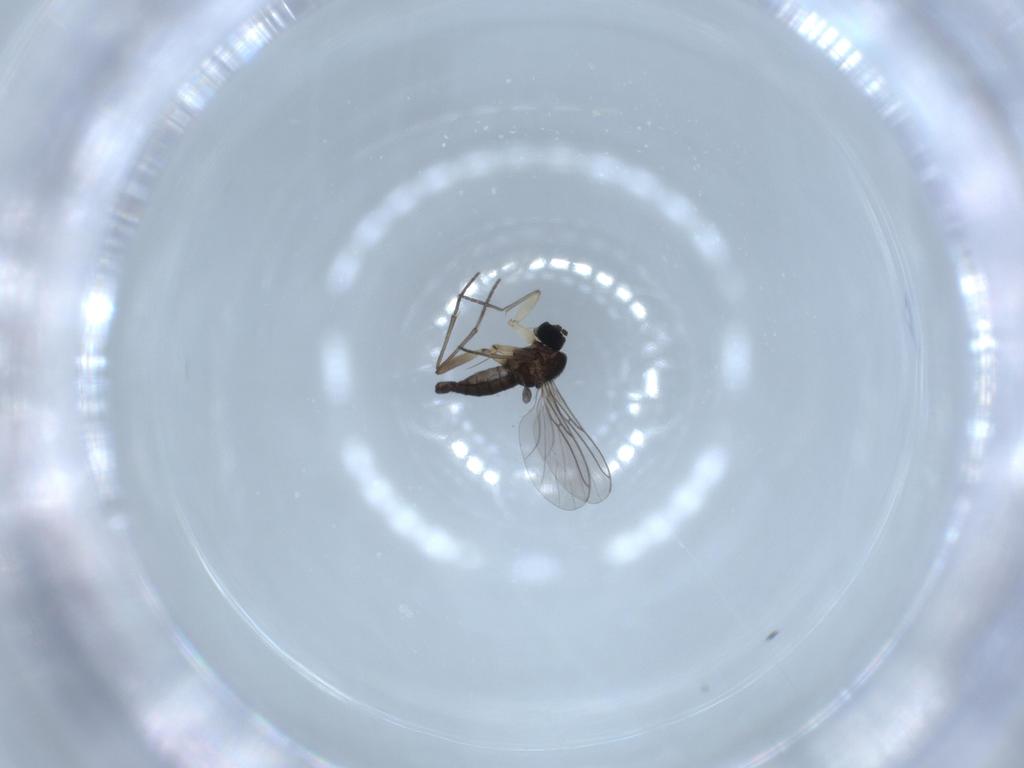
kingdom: Animalia
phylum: Arthropoda
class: Insecta
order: Diptera
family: Sciaridae
